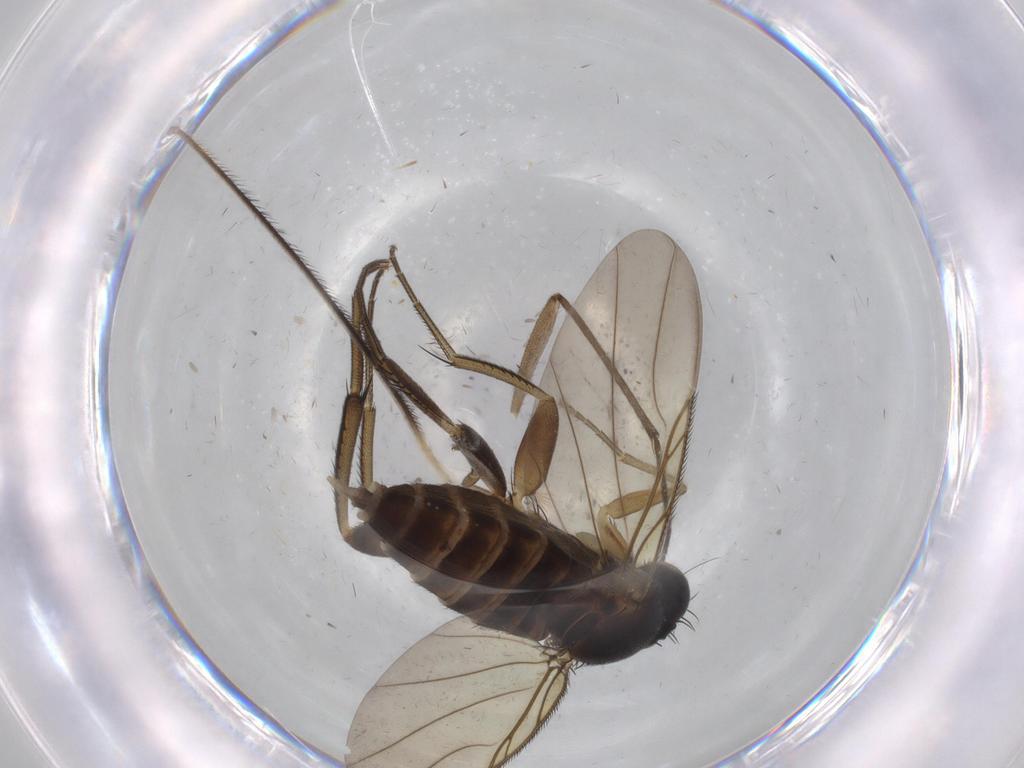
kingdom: Animalia
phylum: Arthropoda
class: Insecta
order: Diptera
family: Phoridae
